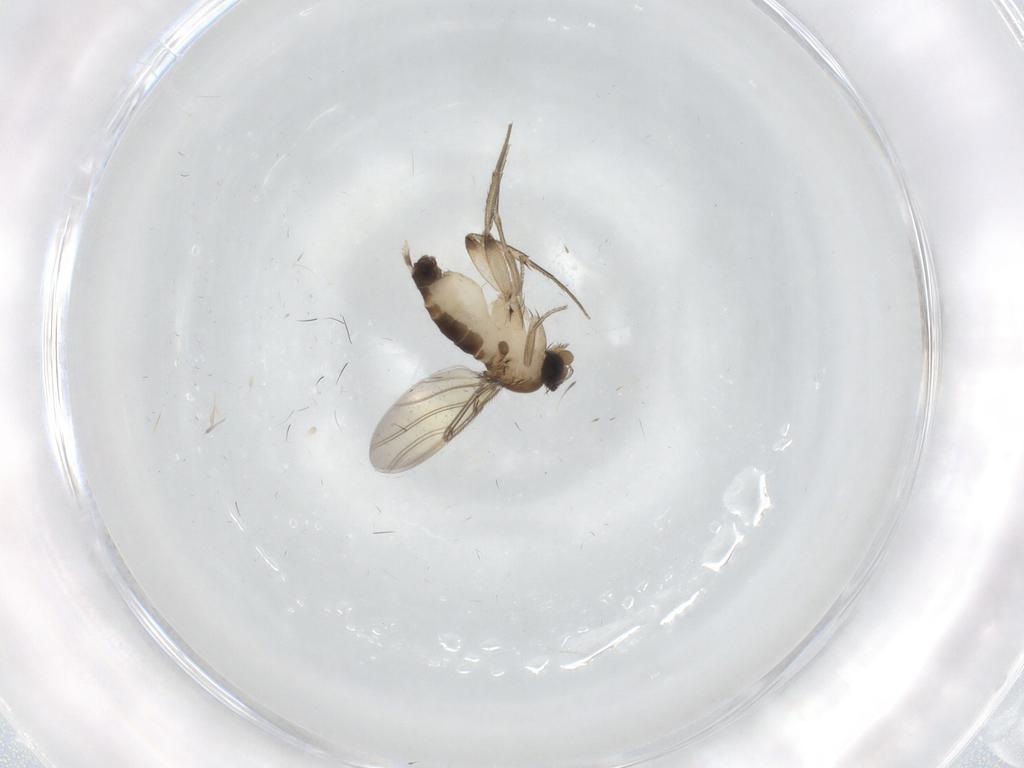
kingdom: Animalia
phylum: Arthropoda
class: Insecta
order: Diptera
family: Phoridae
